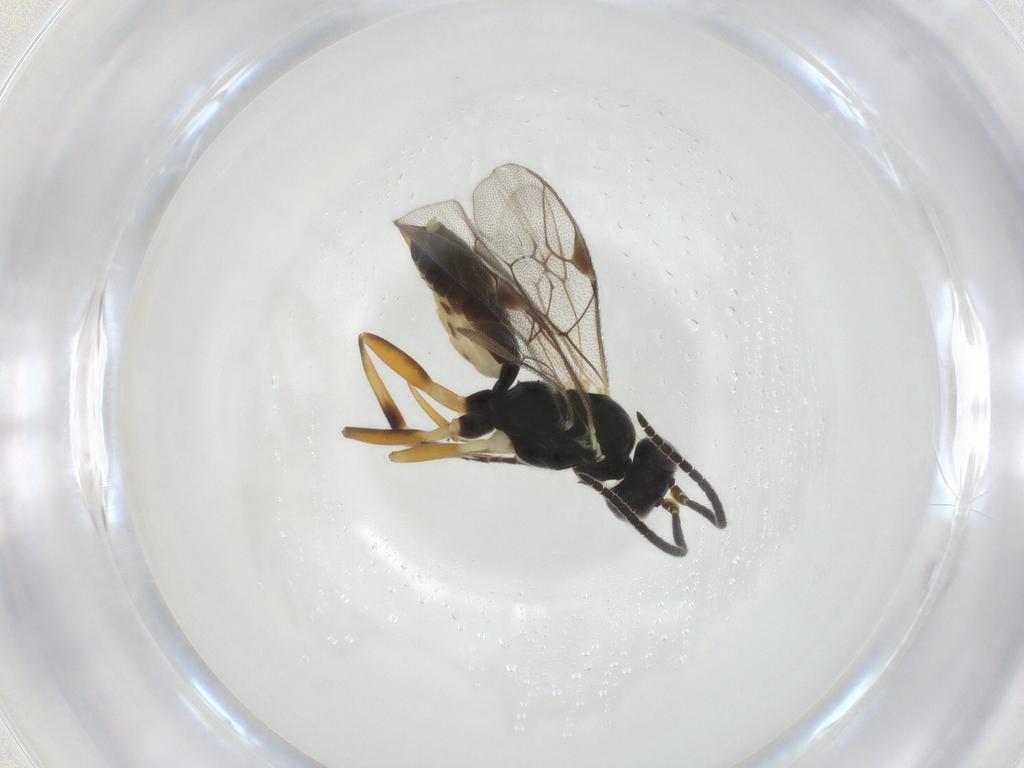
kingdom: Animalia
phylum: Arthropoda
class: Insecta
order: Hymenoptera
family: Ichneumonidae
